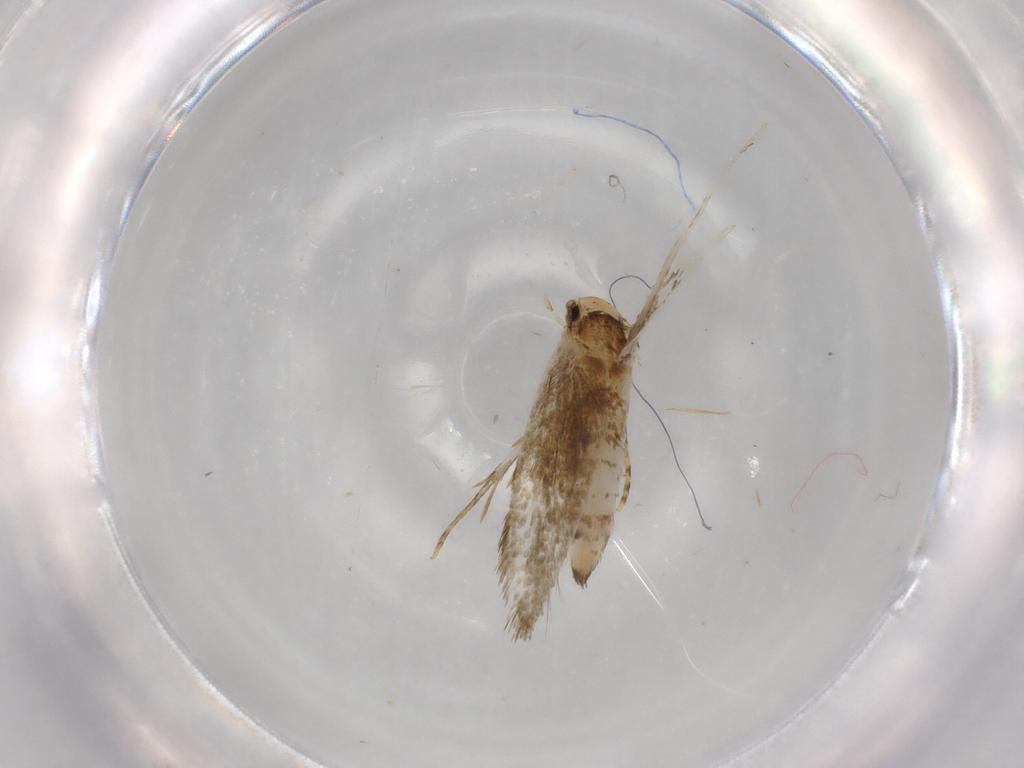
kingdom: Animalia
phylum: Arthropoda
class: Insecta
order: Lepidoptera
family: Tineidae
